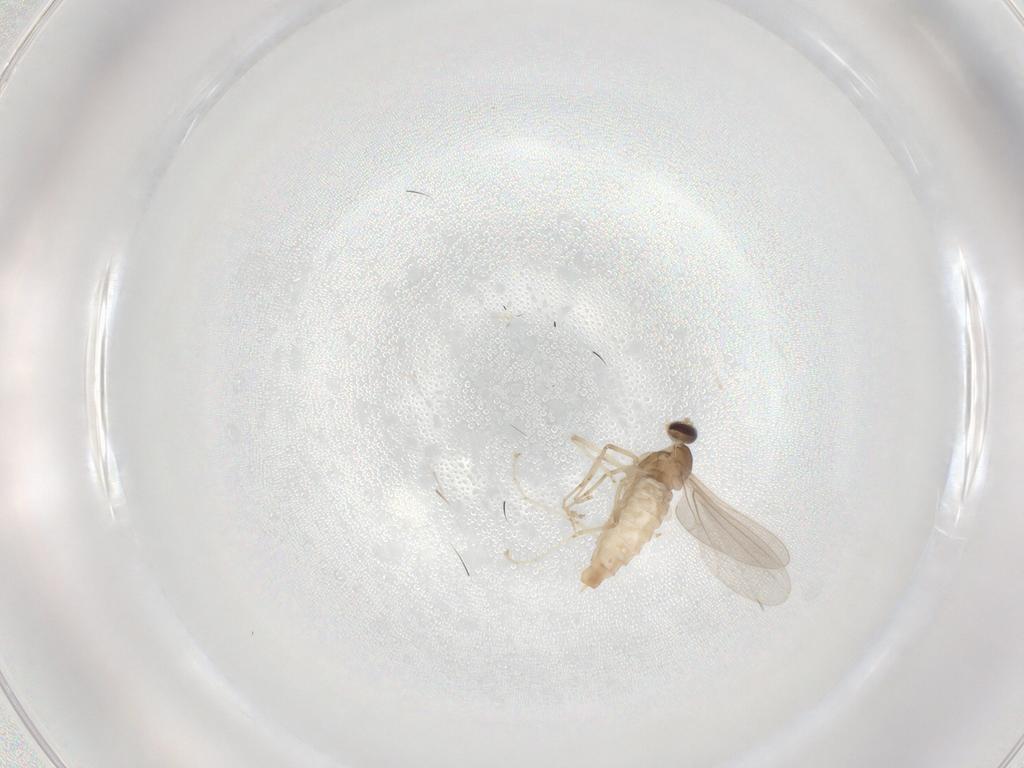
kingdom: Animalia
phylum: Arthropoda
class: Insecta
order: Diptera
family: Cecidomyiidae
